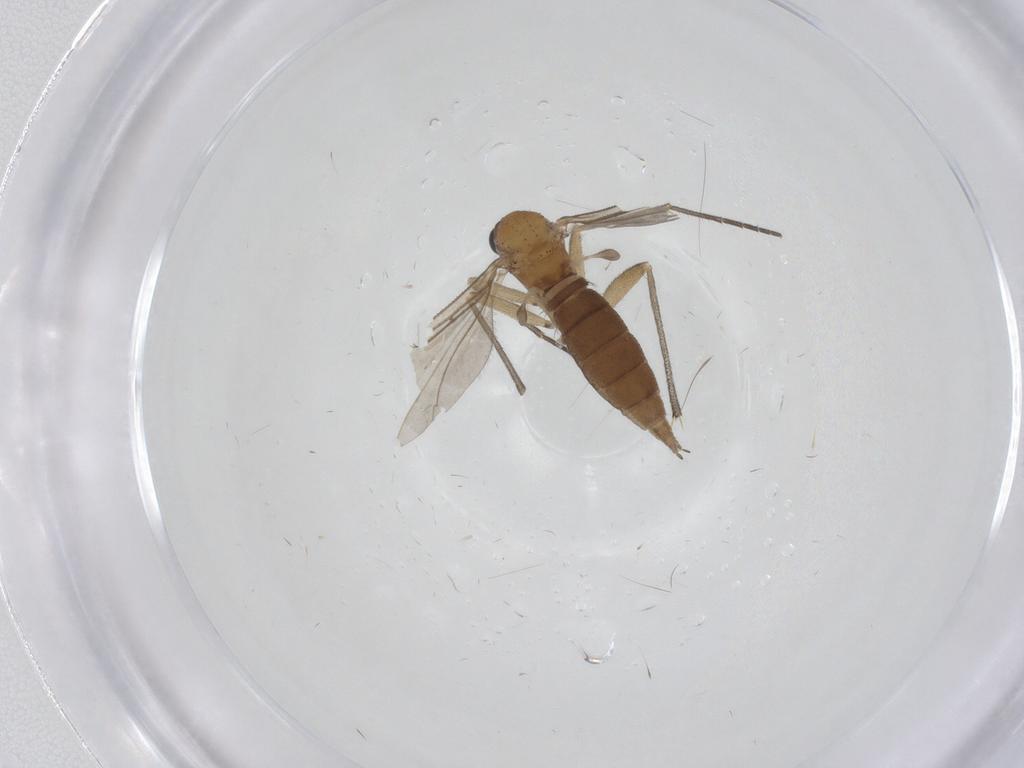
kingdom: Animalia
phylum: Arthropoda
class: Insecta
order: Diptera
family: Sciaridae
